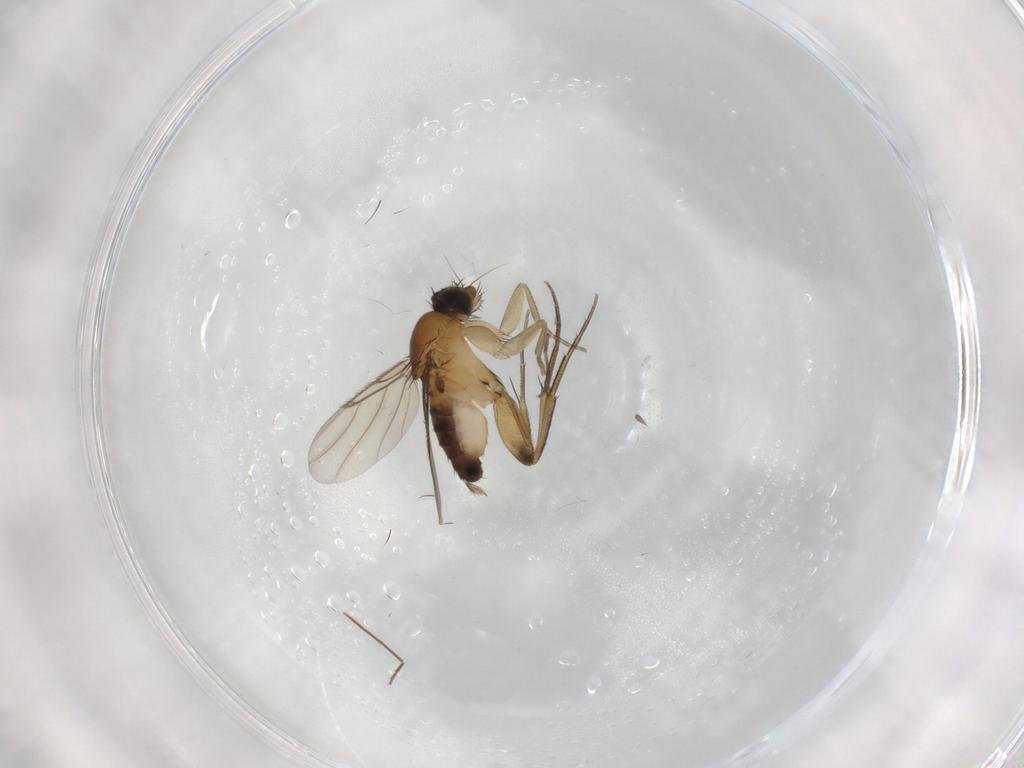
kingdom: Animalia
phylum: Arthropoda
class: Insecta
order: Diptera
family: Phoridae
